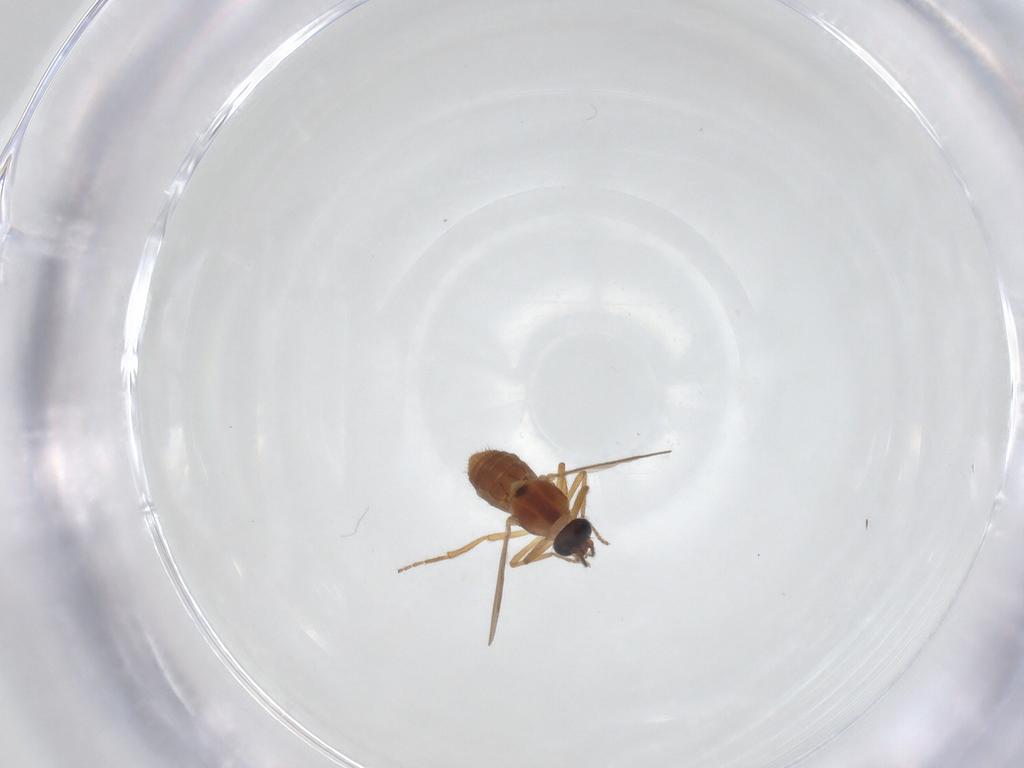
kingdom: Animalia
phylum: Arthropoda
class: Insecta
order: Diptera
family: Ceratopogonidae
